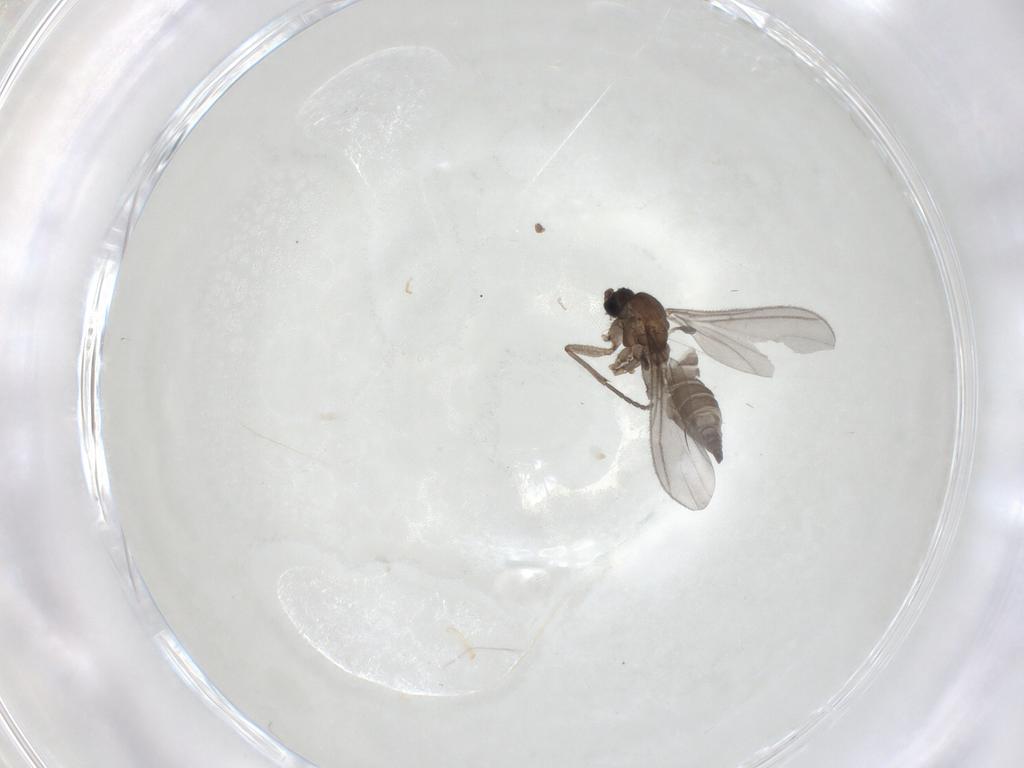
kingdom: Animalia
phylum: Arthropoda
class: Insecta
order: Diptera
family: Sciaridae
